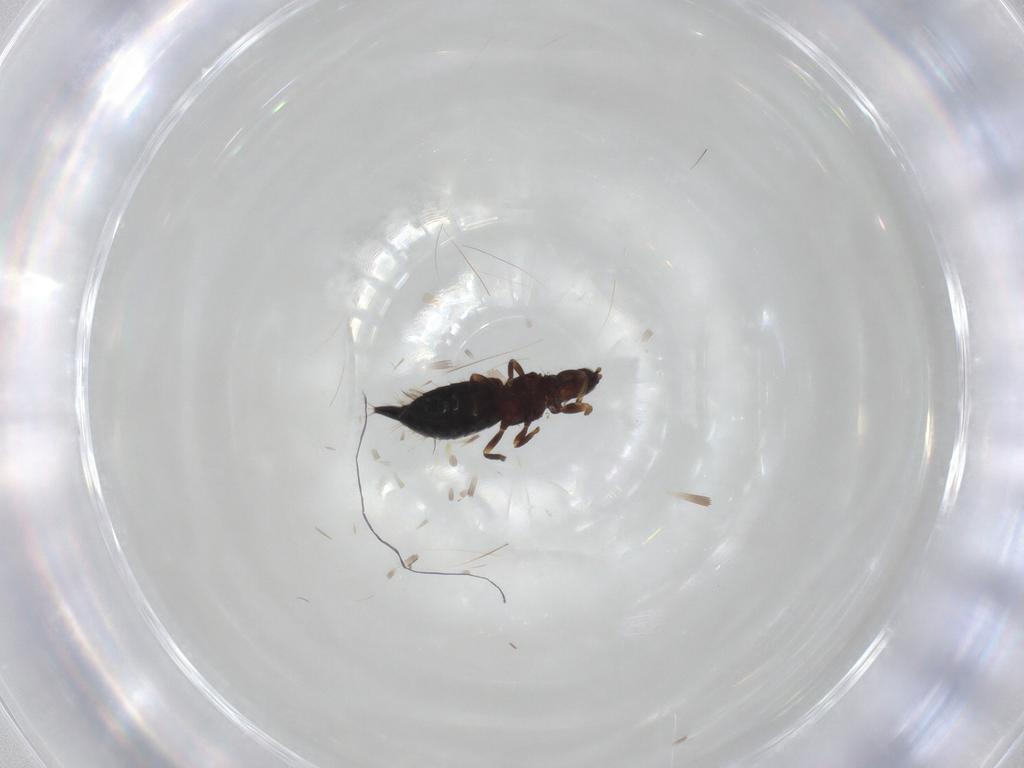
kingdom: Animalia
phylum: Arthropoda
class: Insecta
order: Thysanoptera
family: Phlaeothripidae
